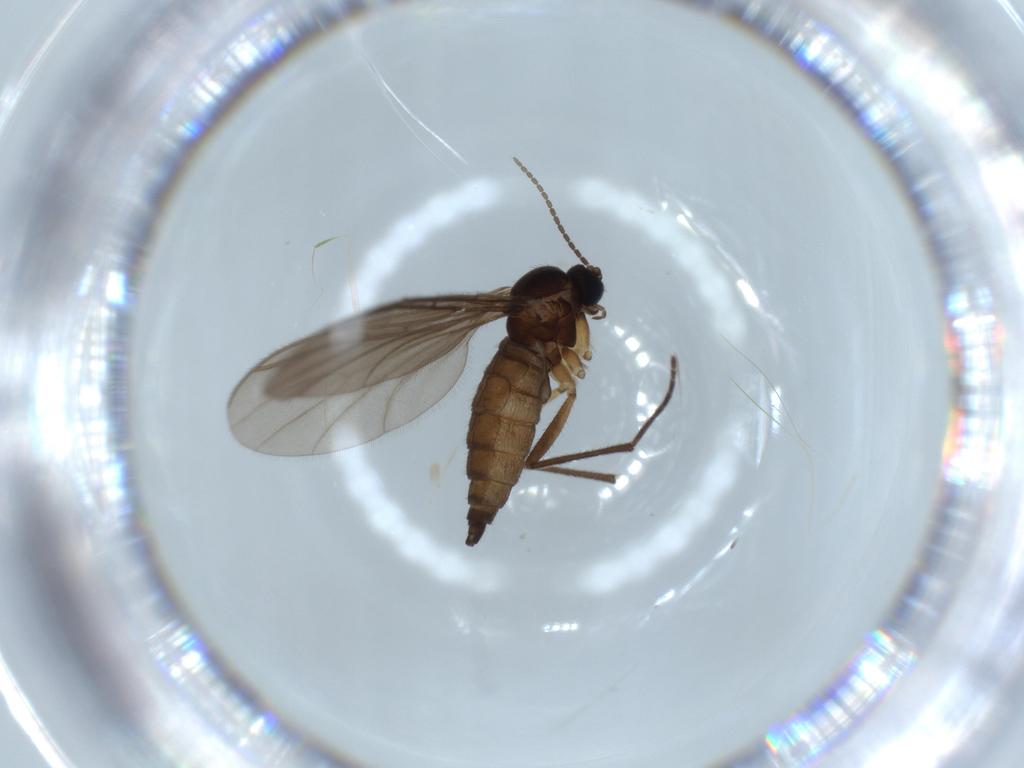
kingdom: Animalia
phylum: Arthropoda
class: Insecta
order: Diptera
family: Sciaridae
